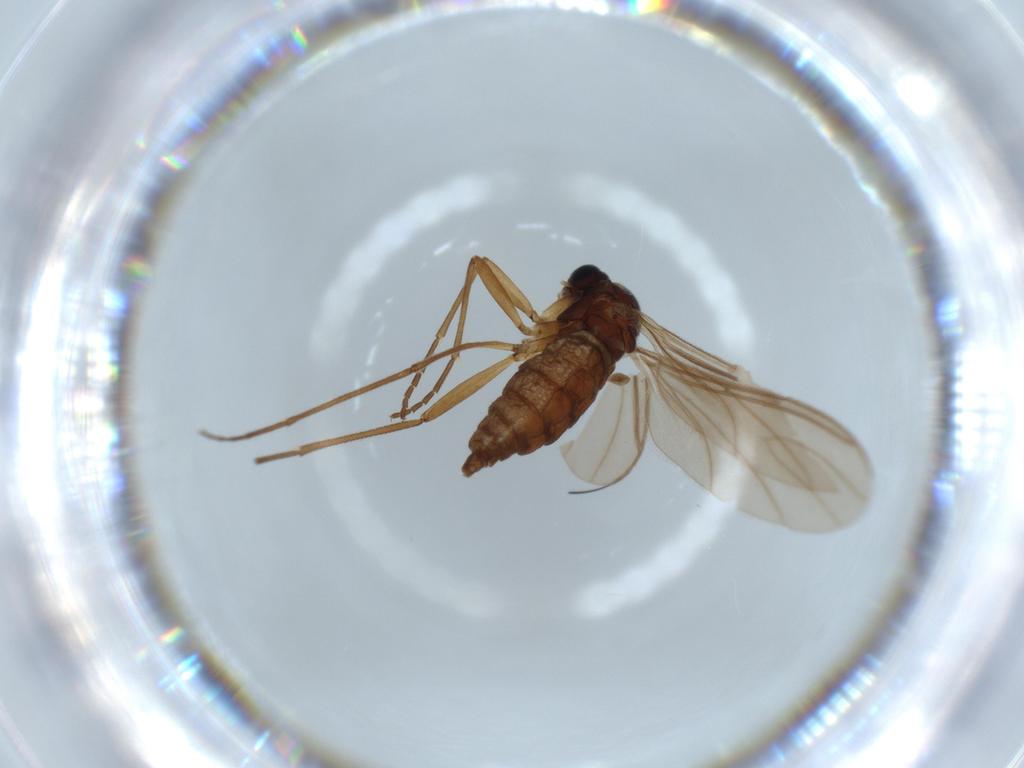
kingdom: Animalia
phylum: Arthropoda
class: Insecta
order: Diptera
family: Sciaridae
